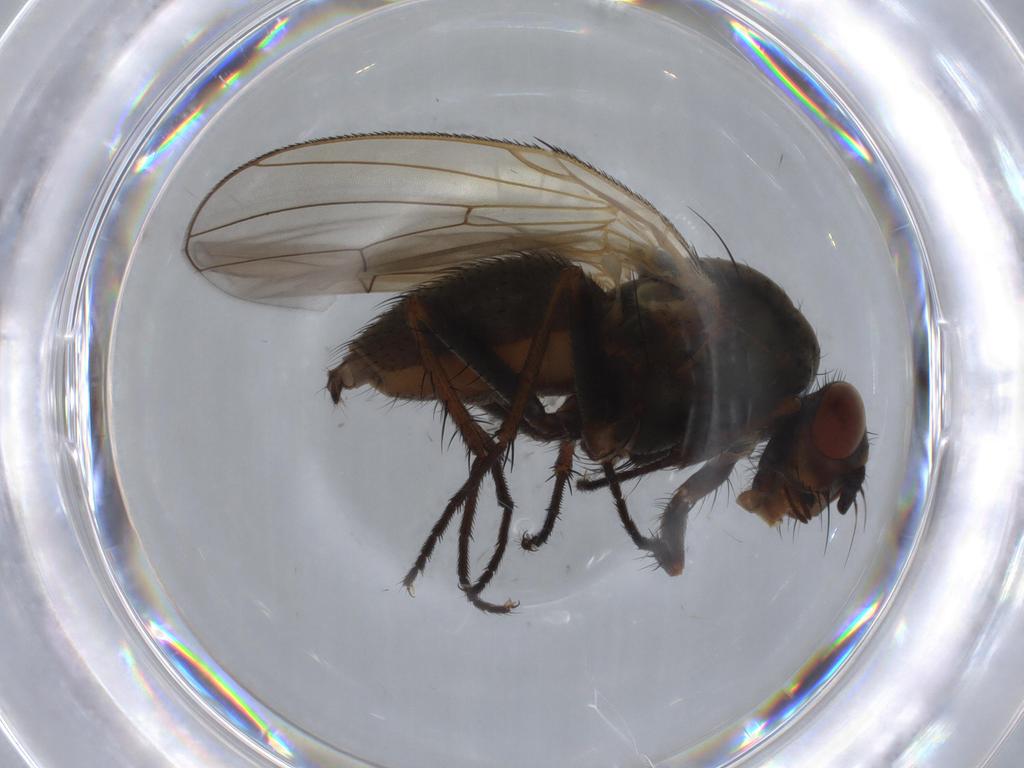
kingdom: Animalia
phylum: Arthropoda
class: Insecta
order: Diptera
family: Anthomyiidae
